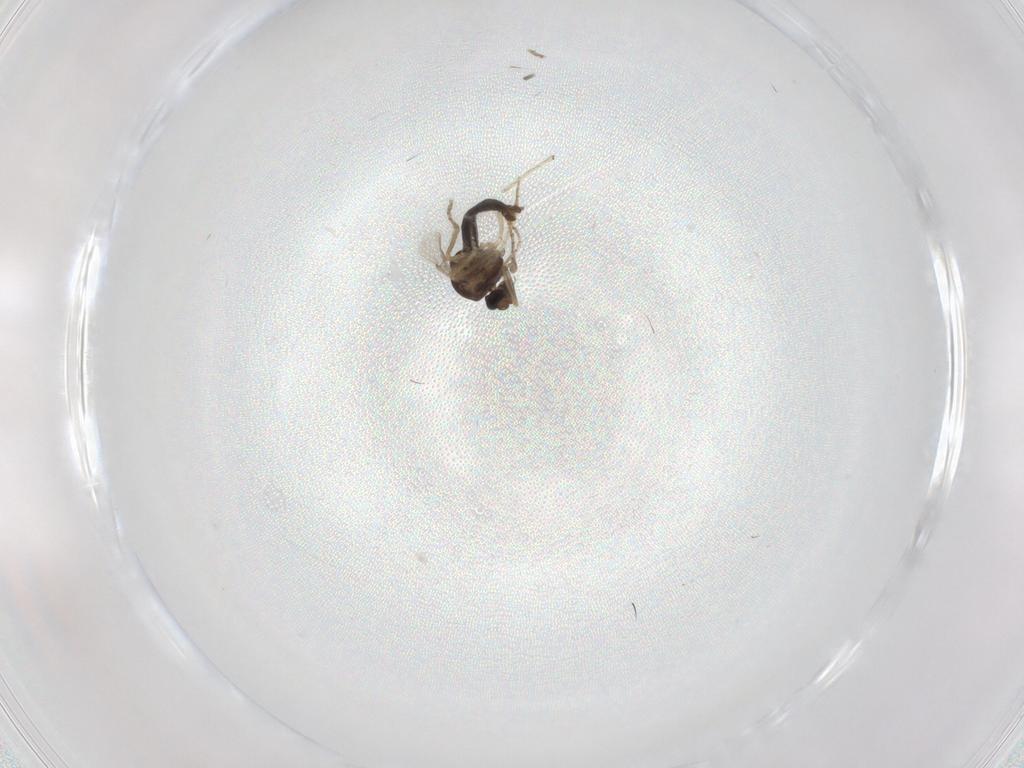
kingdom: Animalia
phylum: Arthropoda
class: Insecta
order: Diptera
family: Ceratopogonidae
